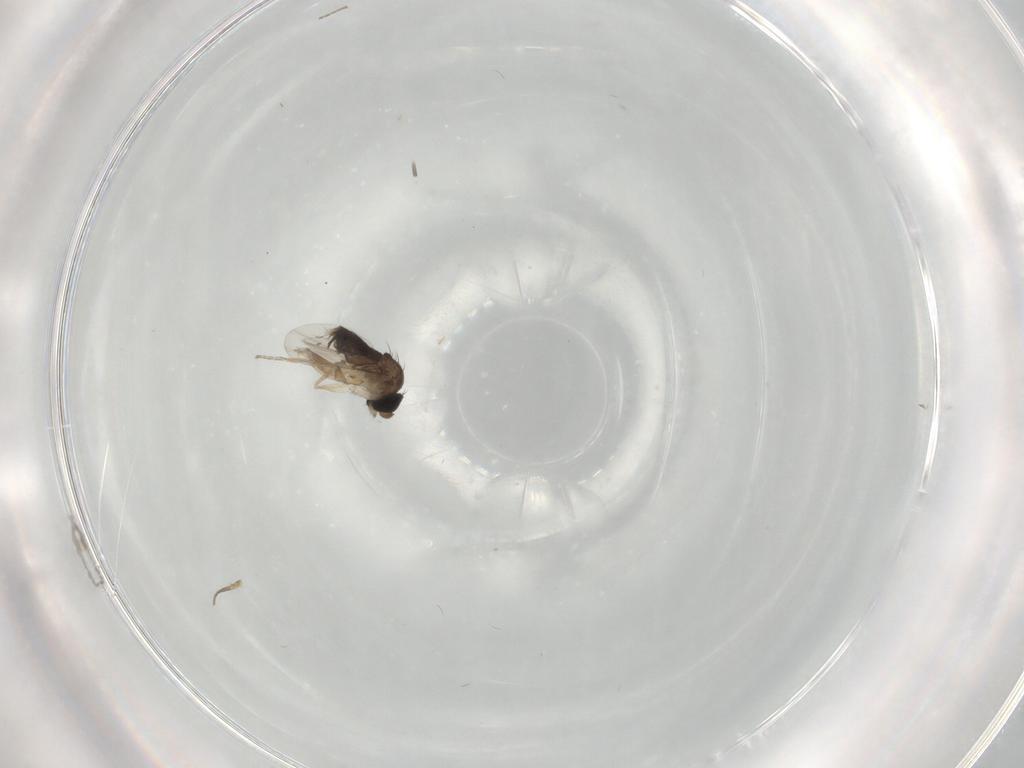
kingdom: Animalia
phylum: Arthropoda
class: Insecta
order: Diptera
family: Phoridae
